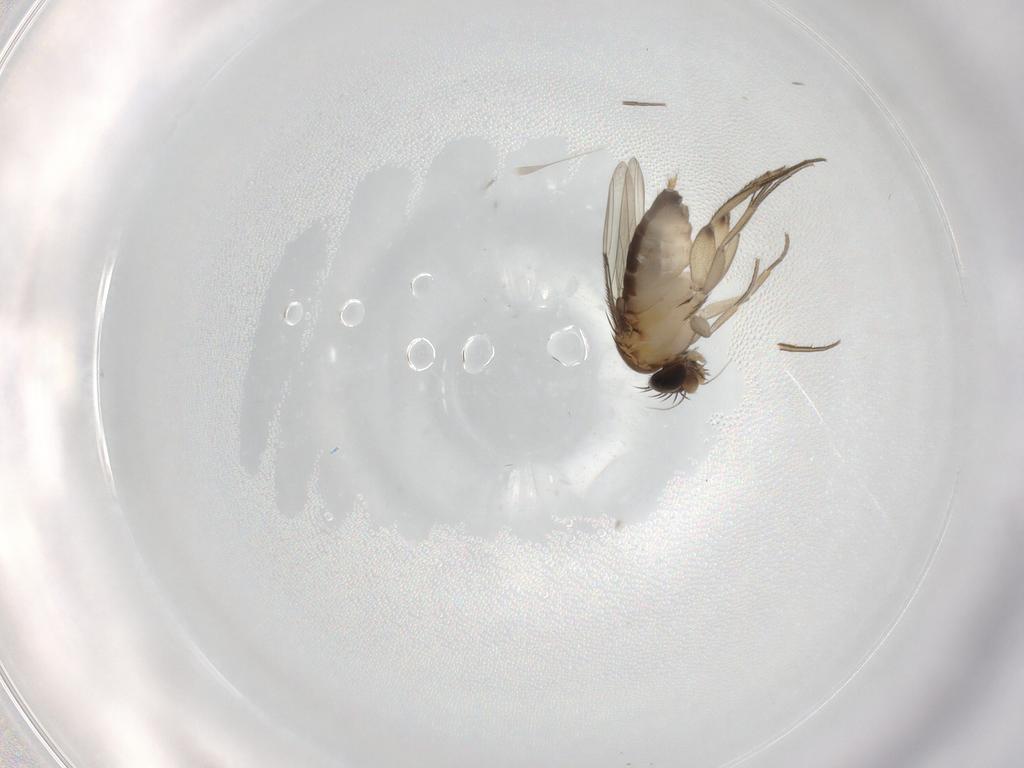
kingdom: Animalia
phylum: Arthropoda
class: Insecta
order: Diptera
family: Phoridae
